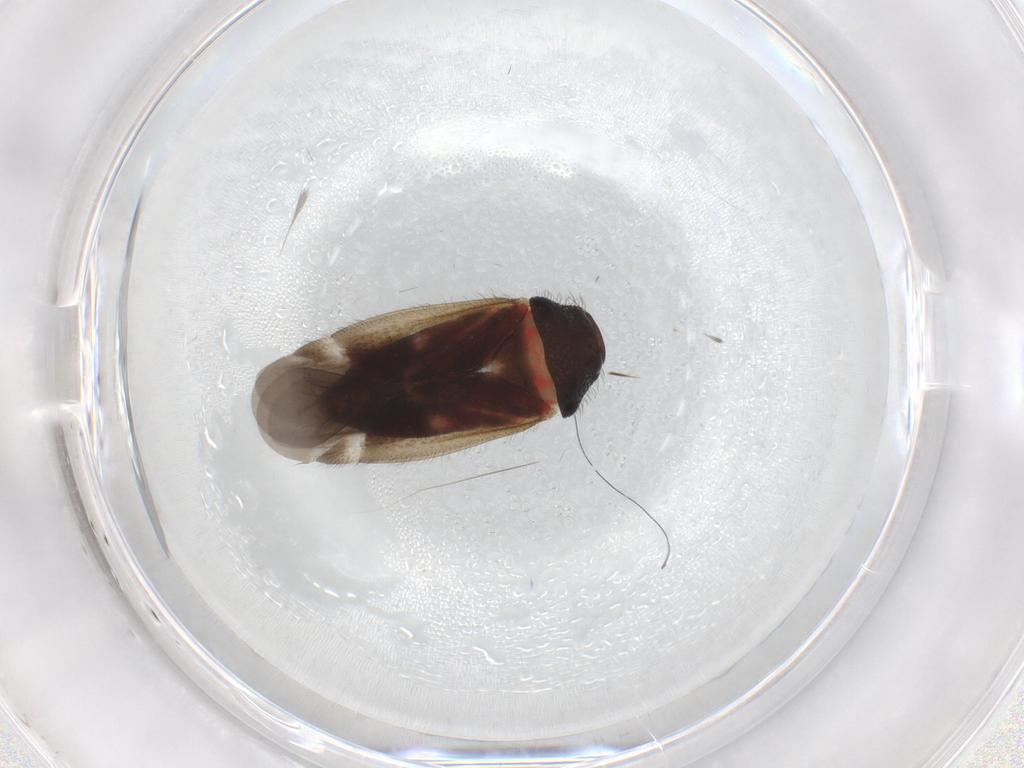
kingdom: Animalia
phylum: Arthropoda
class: Insecta
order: Hemiptera
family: Miridae
